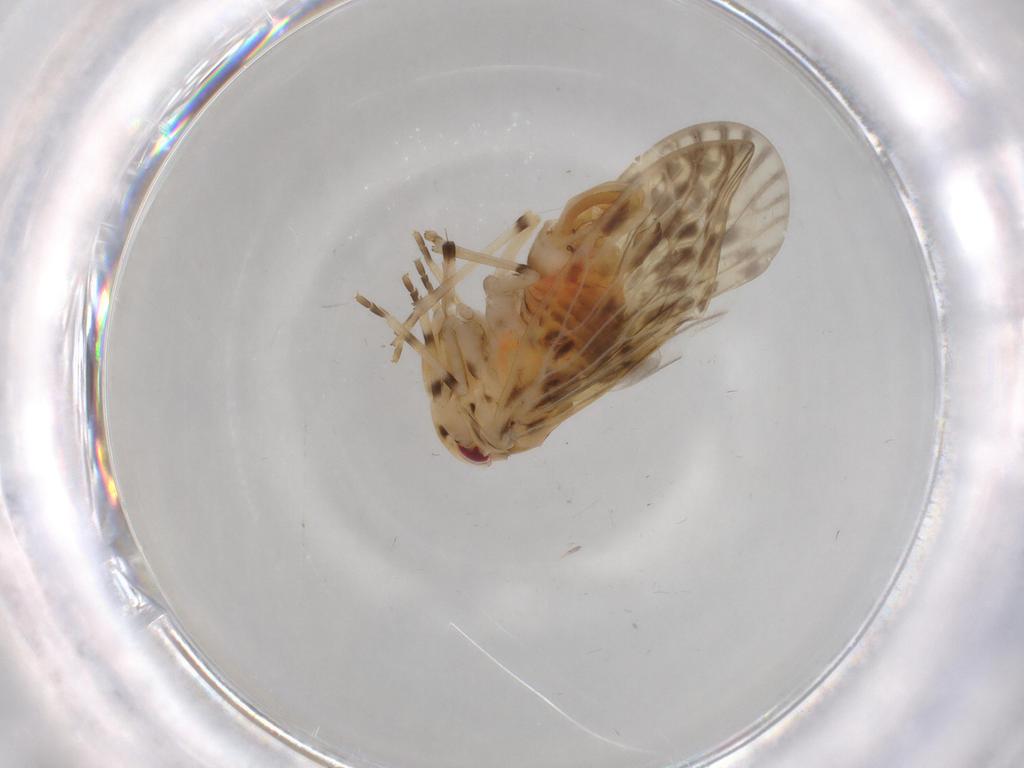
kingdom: Animalia
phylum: Arthropoda
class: Insecta
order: Hemiptera
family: Derbidae
